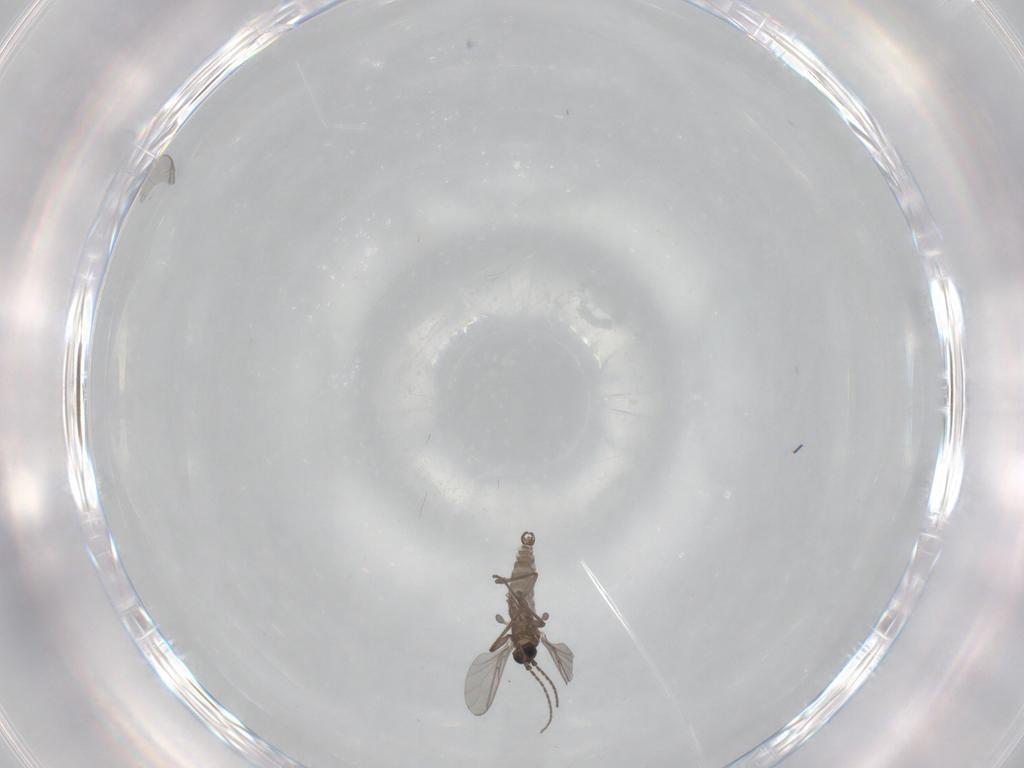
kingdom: Animalia
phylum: Arthropoda
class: Insecta
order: Diptera
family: Sciaridae
